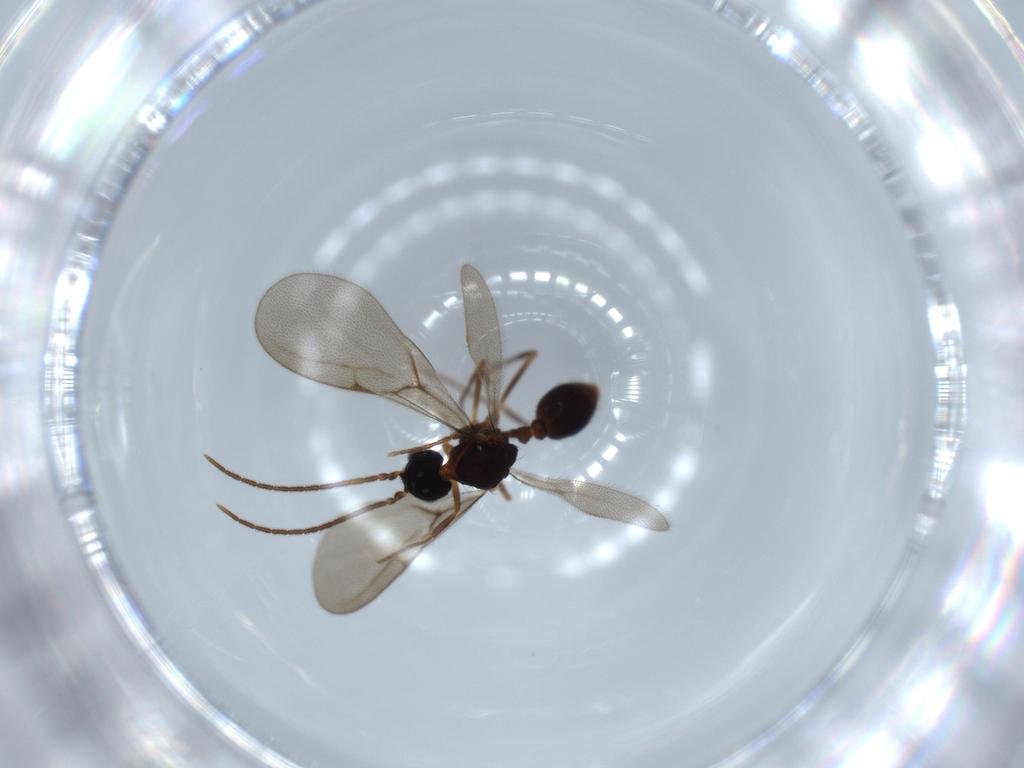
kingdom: Animalia
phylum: Arthropoda
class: Insecta
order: Hymenoptera
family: Formicidae
